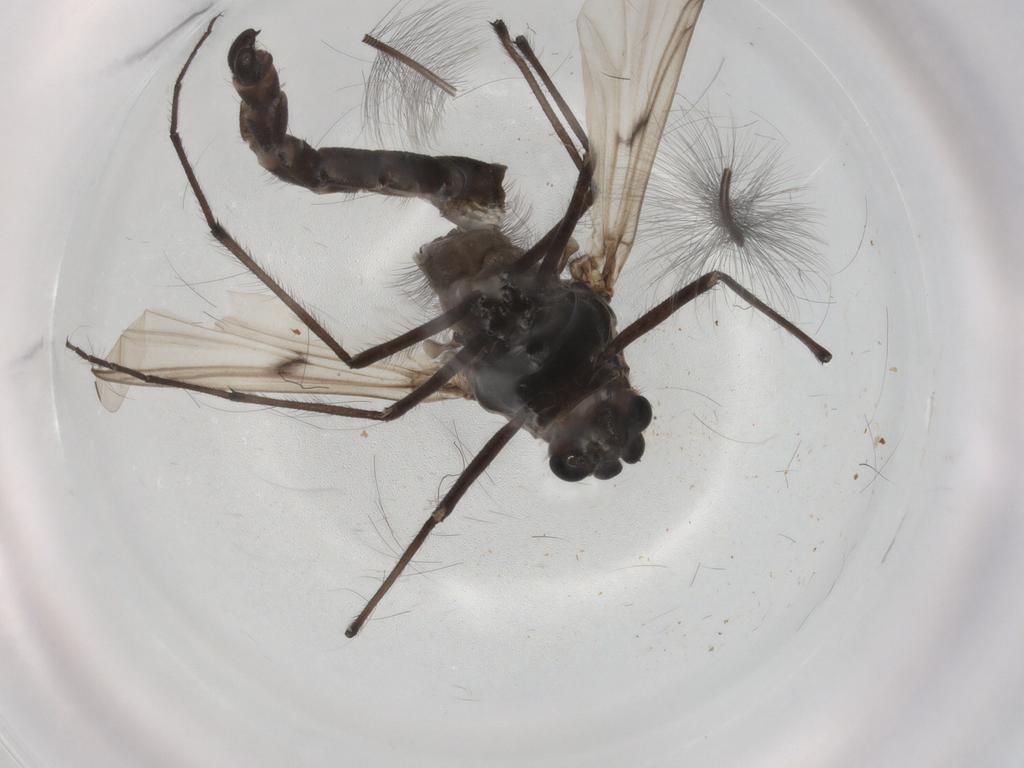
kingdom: Animalia
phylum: Arthropoda
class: Insecta
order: Diptera
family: Chironomidae
